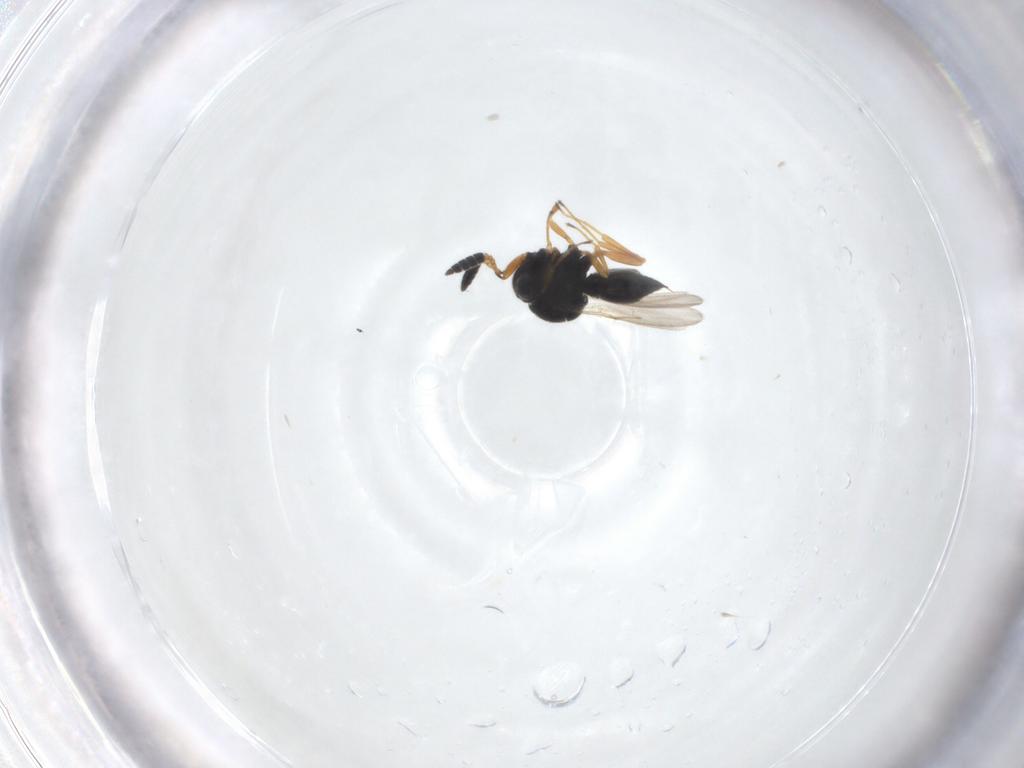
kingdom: Animalia
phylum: Arthropoda
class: Insecta
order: Hymenoptera
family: Scelionidae
